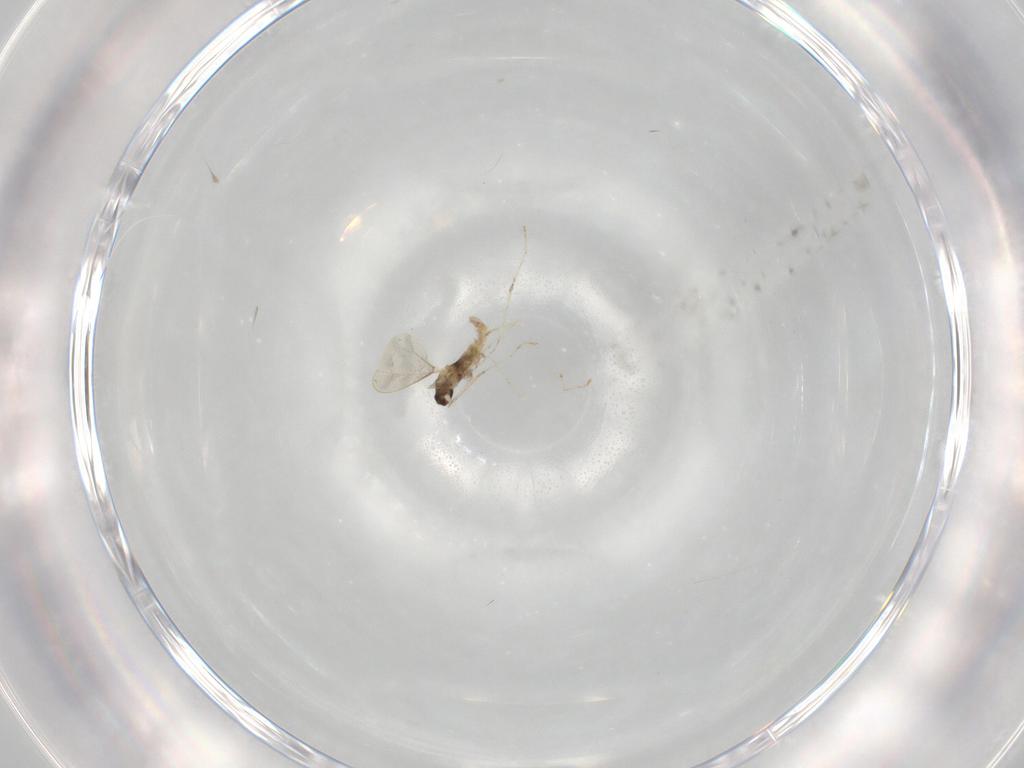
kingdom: Animalia
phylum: Arthropoda
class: Insecta
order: Diptera
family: Cecidomyiidae
